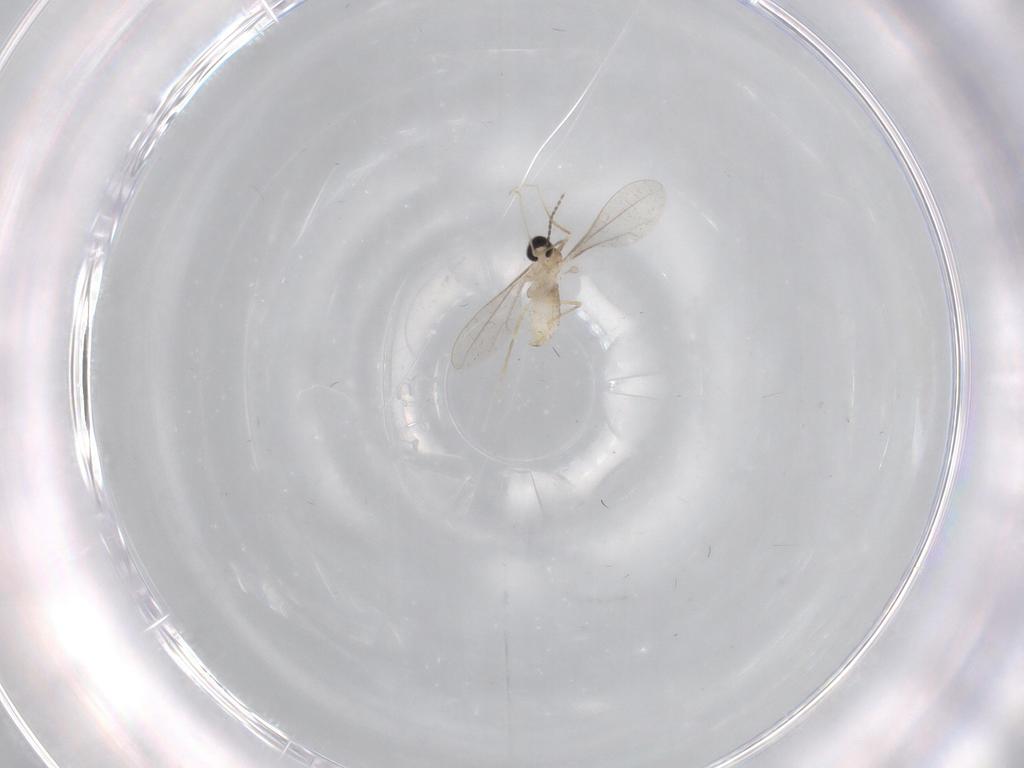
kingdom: Animalia
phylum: Arthropoda
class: Insecta
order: Diptera
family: Cecidomyiidae
